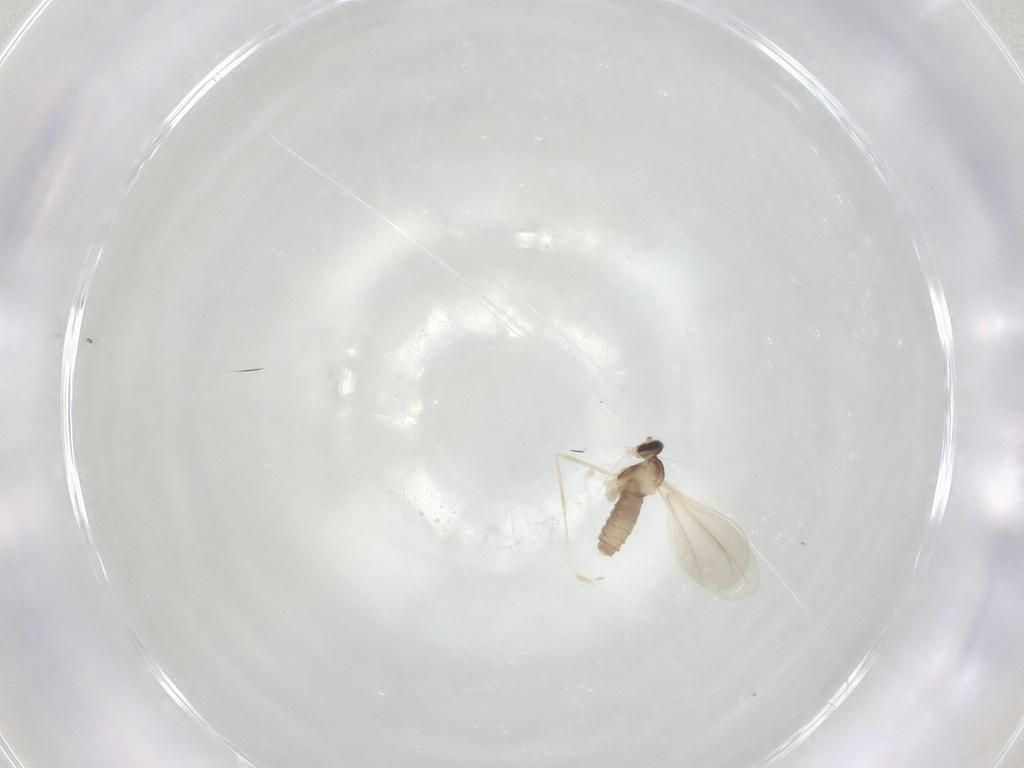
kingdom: Animalia
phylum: Arthropoda
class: Insecta
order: Diptera
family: Cecidomyiidae
